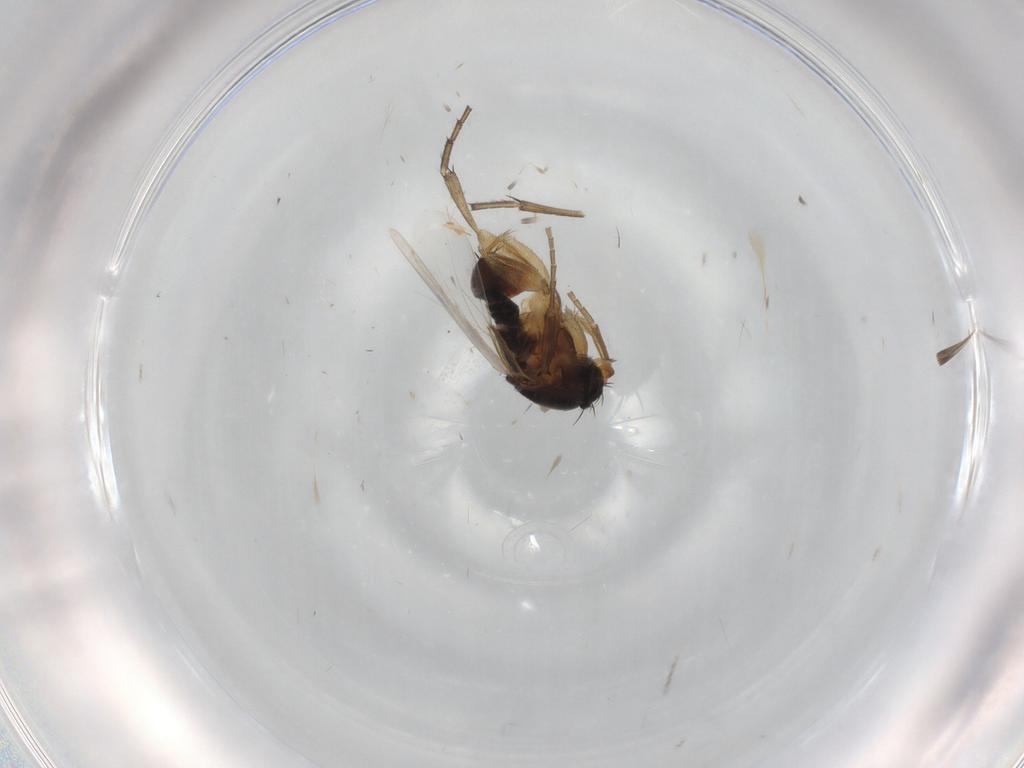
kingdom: Animalia
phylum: Arthropoda
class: Insecta
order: Diptera
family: Phoridae
